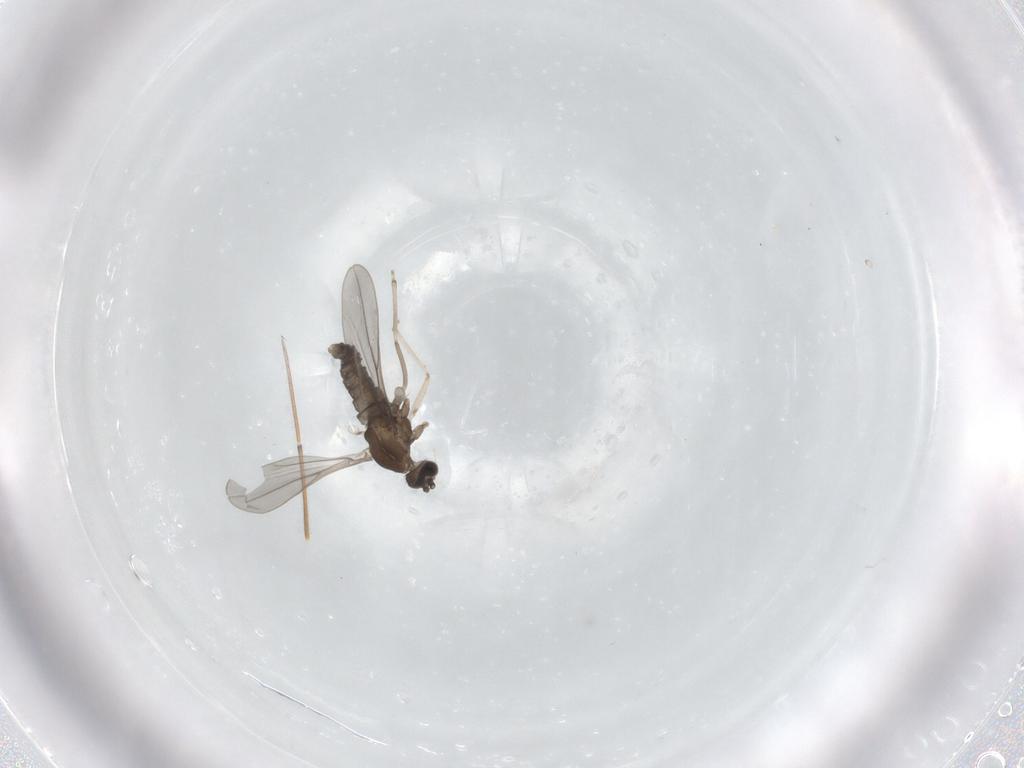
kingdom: Animalia
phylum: Arthropoda
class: Insecta
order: Diptera
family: Cecidomyiidae
